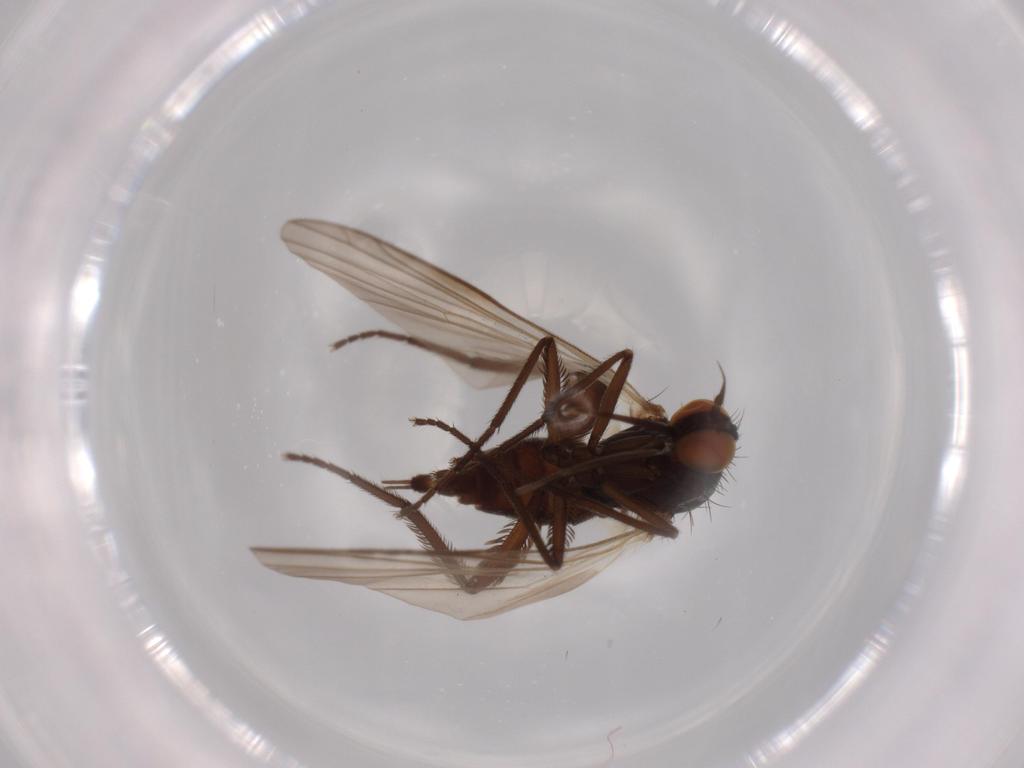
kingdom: Animalia
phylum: Arthropoda
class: Insecta
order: Diptera
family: Empididae
